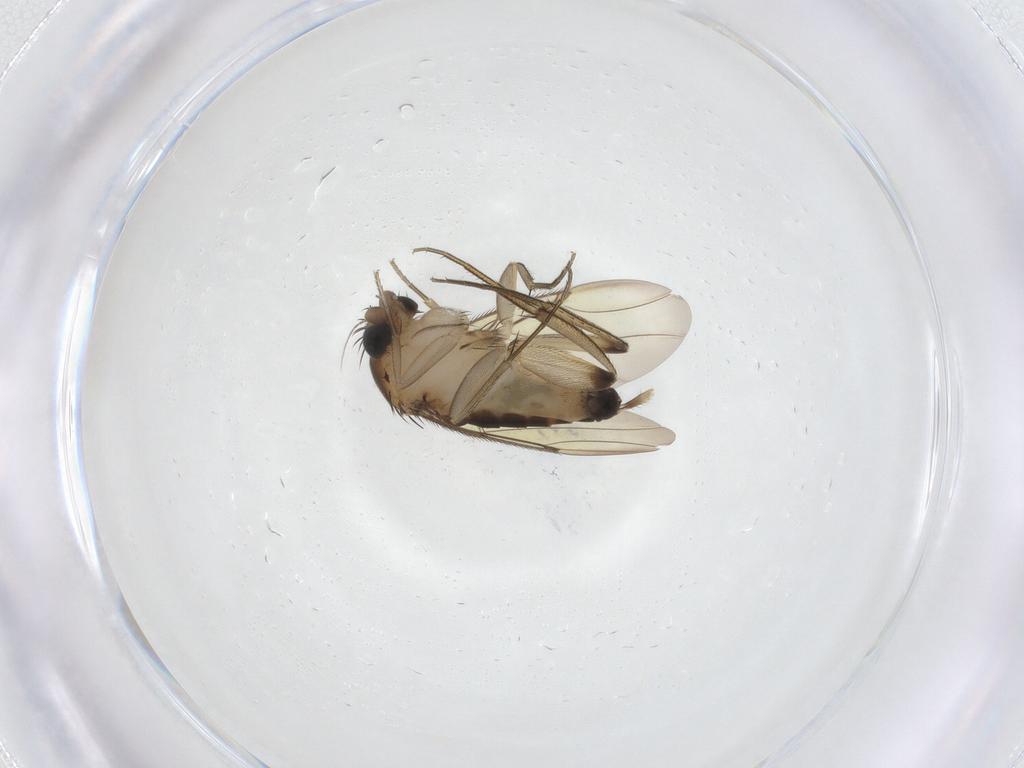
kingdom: Animalia
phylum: Arthropoda
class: Insecta
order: Diptera
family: Phoridae
